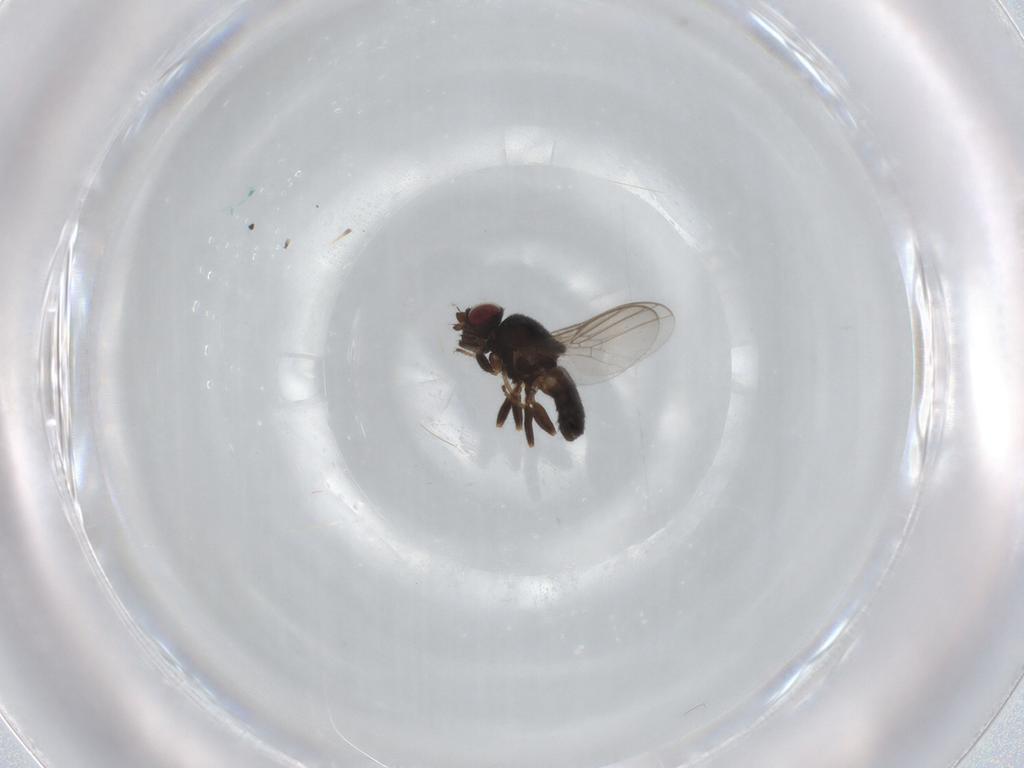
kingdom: Animalia
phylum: Arthropoda
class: Insecta
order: Diptera
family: Chloropidae
